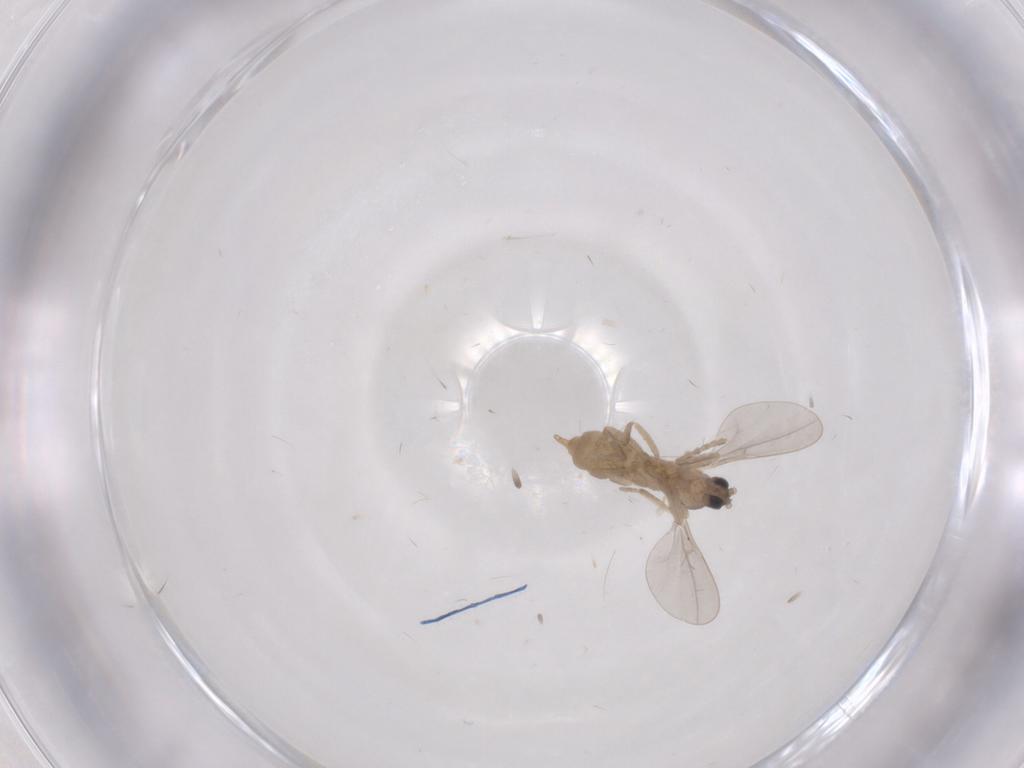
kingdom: Animalia
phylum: Arthropoda
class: Insecta
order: Diptera
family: Cecidomyiidae
